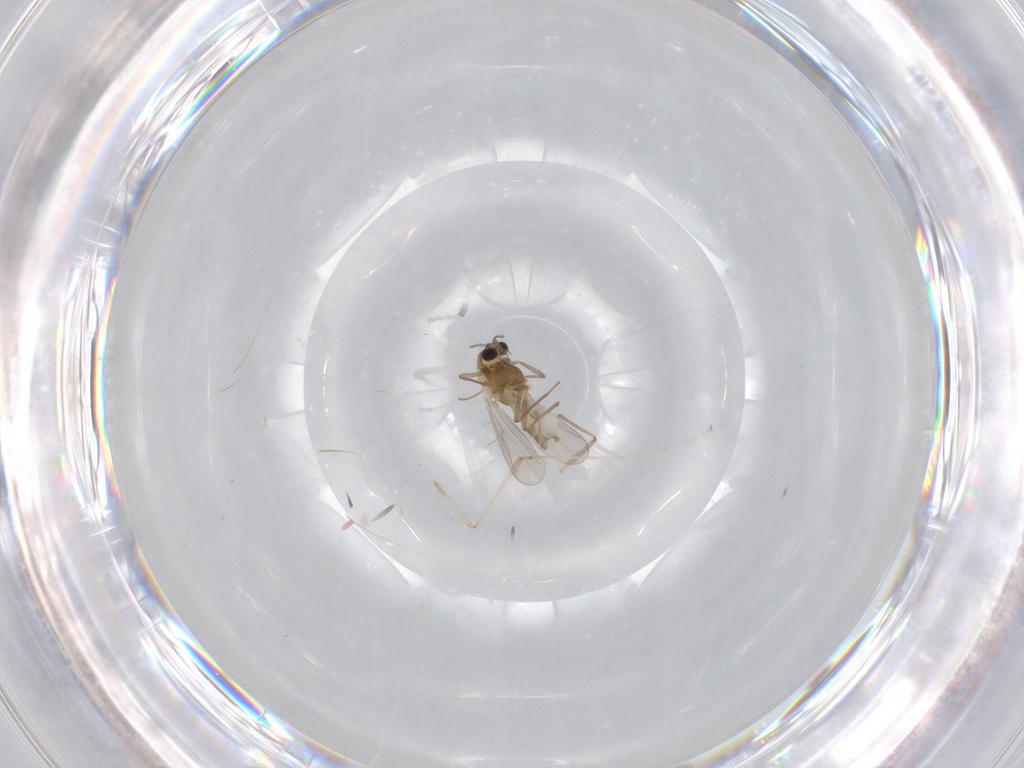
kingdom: Animalia
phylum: Arthropoda
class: Insecta
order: Diptera
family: Chironomidae
